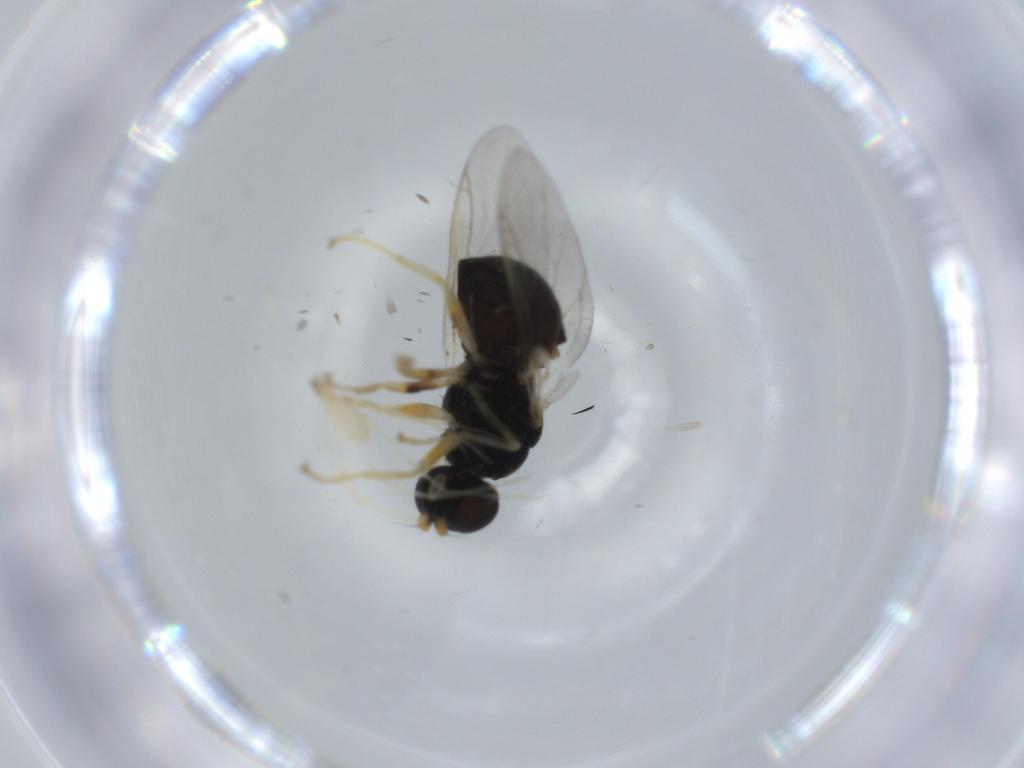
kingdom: Animalia
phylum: Arthropoda
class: Insecta
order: Diptera
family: Stratiomyidae
